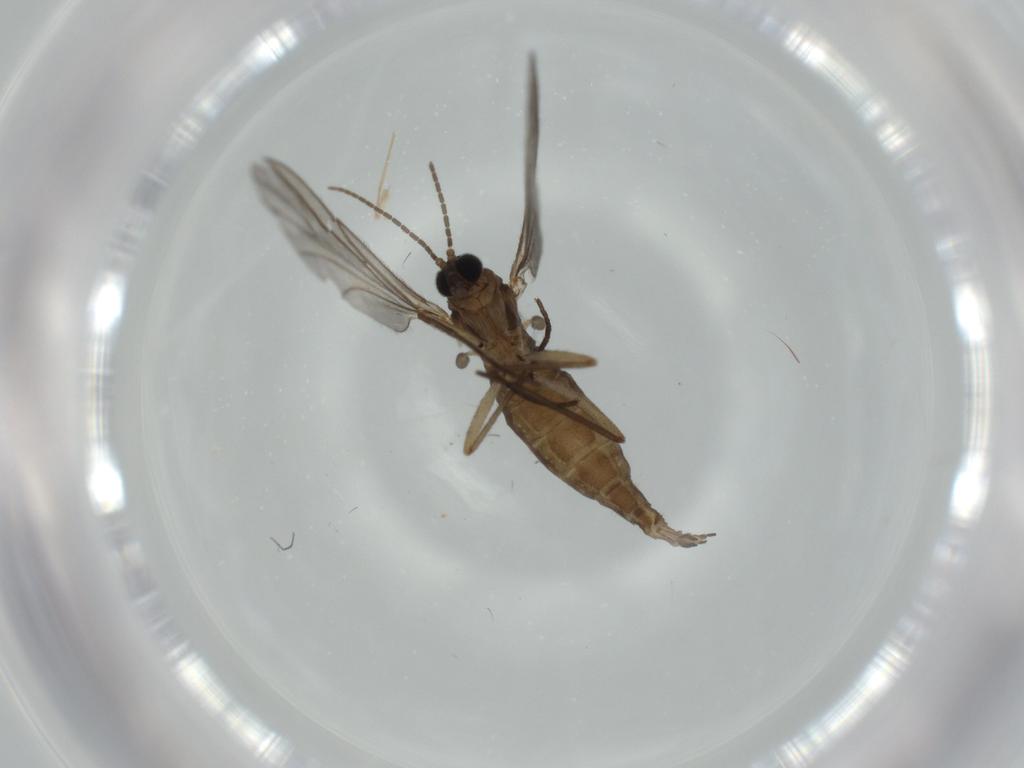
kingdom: Animalia
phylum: Arthropoda
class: Insecta
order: Diptera
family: Sciaridae
